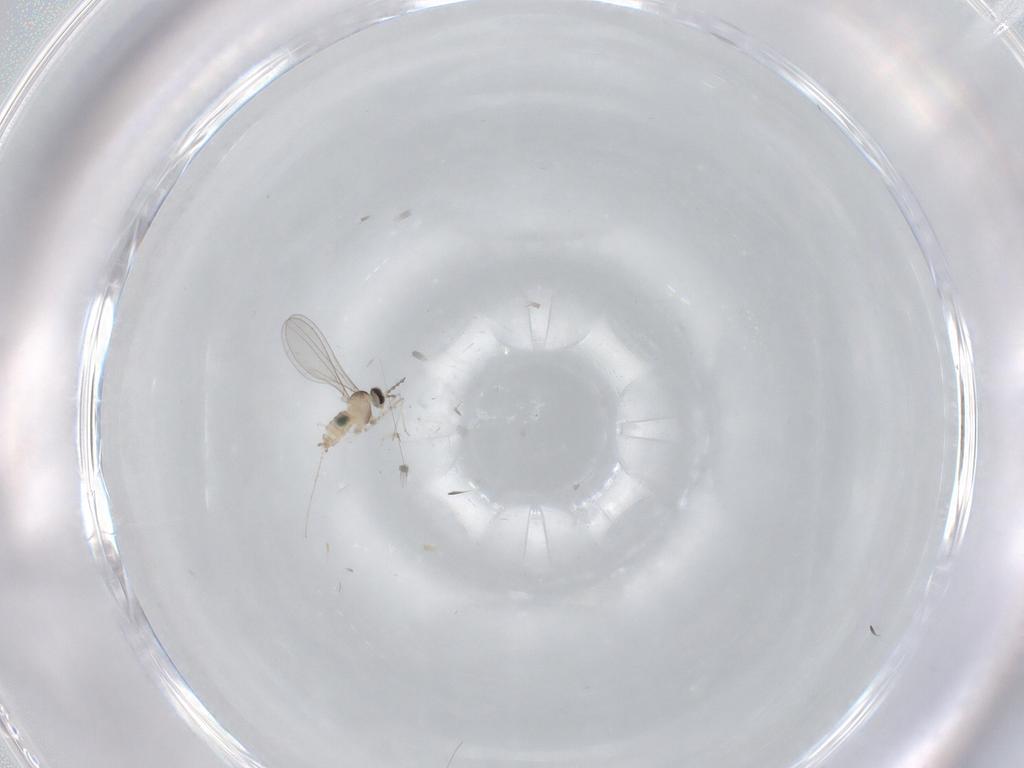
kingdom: Animalia
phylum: Arthropoda
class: Insecta
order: Diptera
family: Cecidomyiidae
